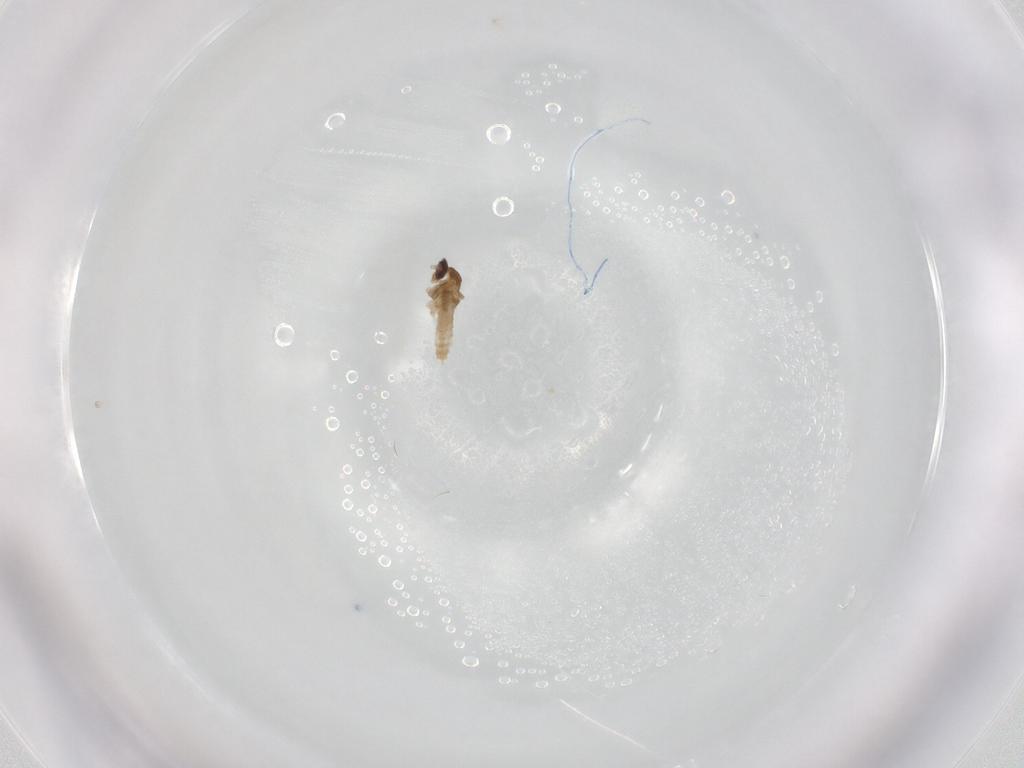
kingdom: Animalia
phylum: Arthropoda
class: Insecta
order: Diptera
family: Cecidomyiidae
